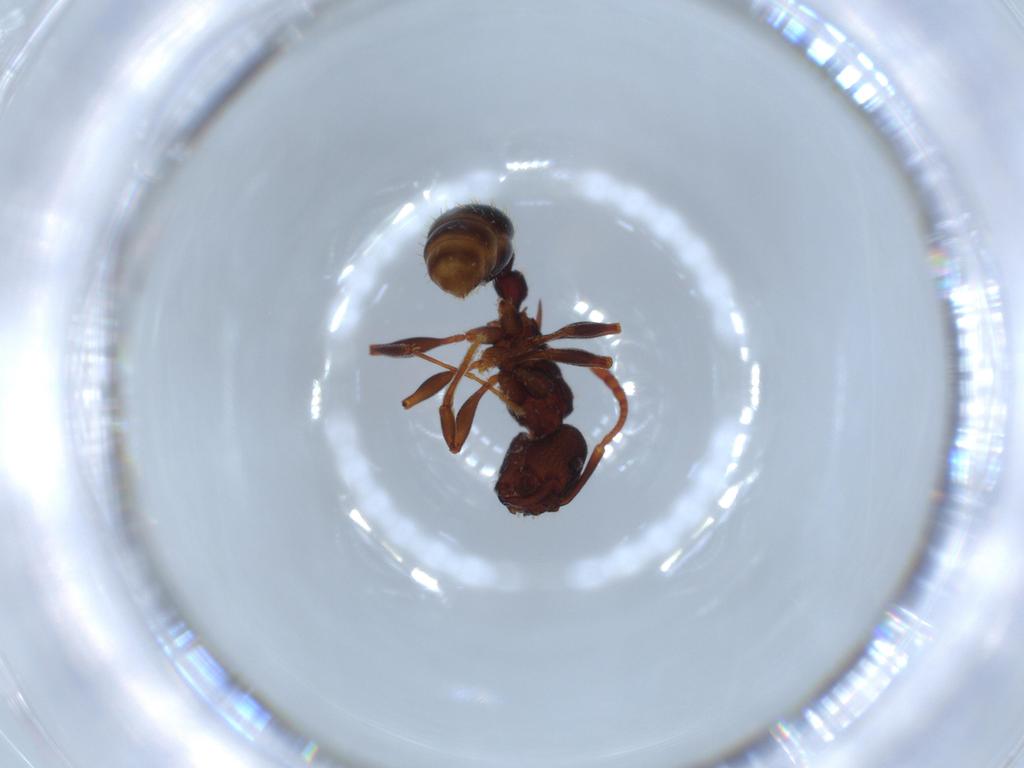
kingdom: Animalia
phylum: Arthropoda
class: Insecta
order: Hymenoptera
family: Formicidae
